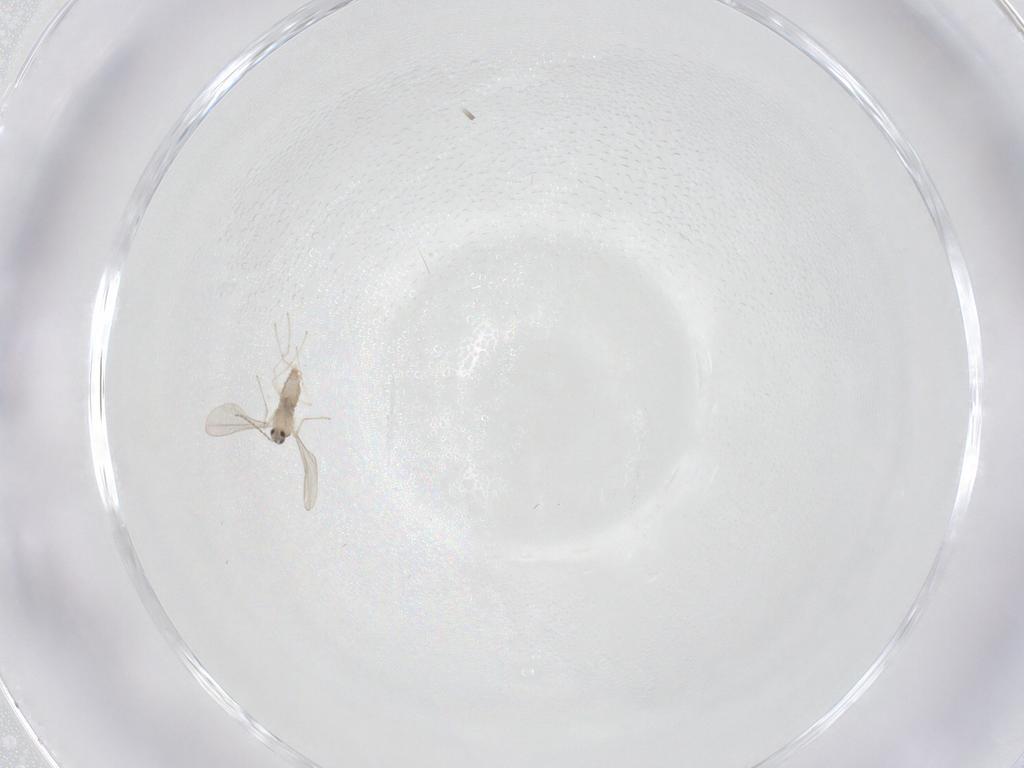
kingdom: Animalia
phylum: Arthropoda
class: Insecta
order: Diptera
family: Cecidomyiidae
